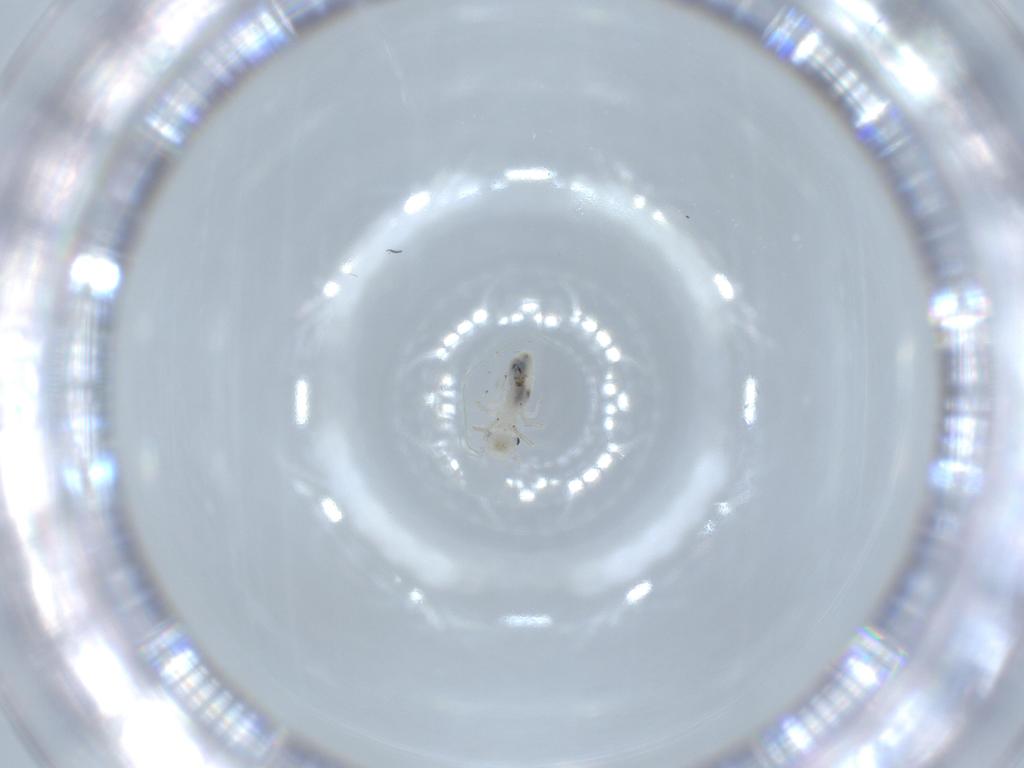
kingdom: Animalia
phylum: Arthropoda
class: Insecta
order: Psocodea
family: Caeciliusidae
